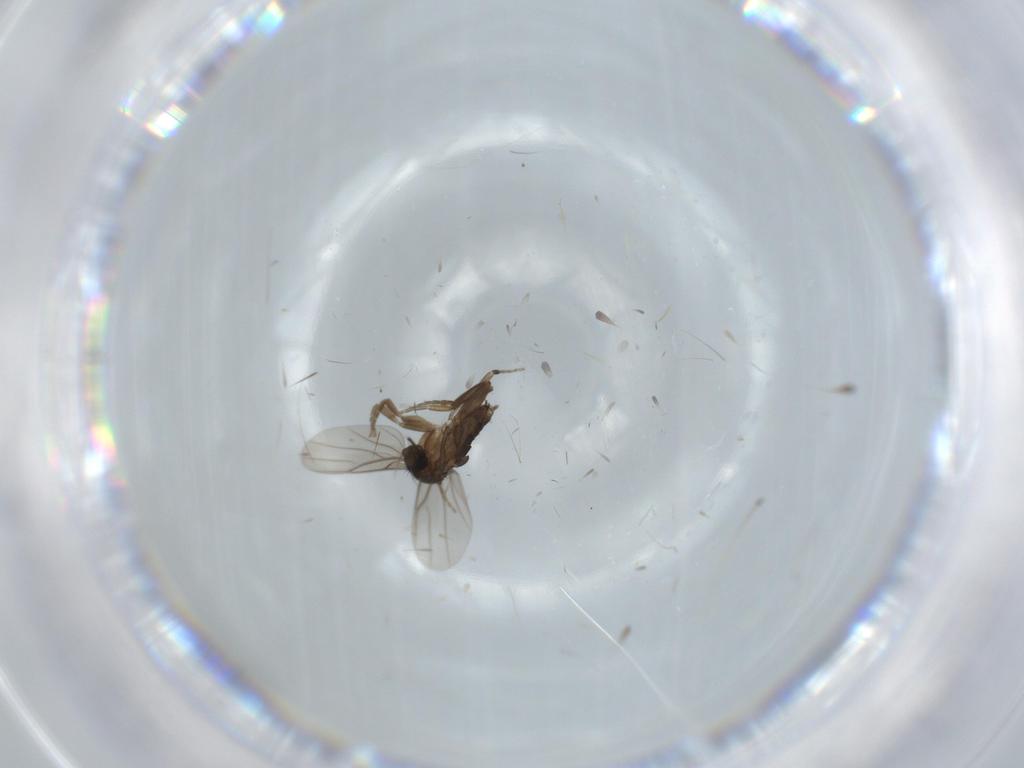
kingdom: Animalia
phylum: Arthropoda
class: Insecta
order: Diptera
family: Phoridae
